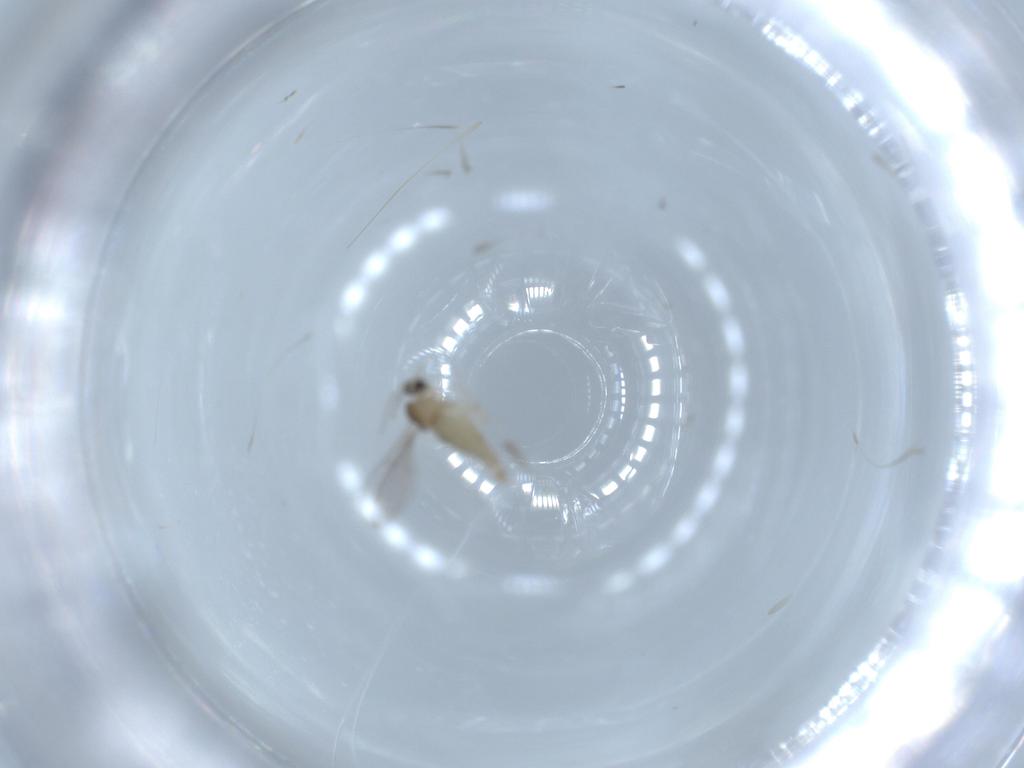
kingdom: Animalia
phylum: Arthropoda
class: Insecta
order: Diptera
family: Cecidomyiidae
